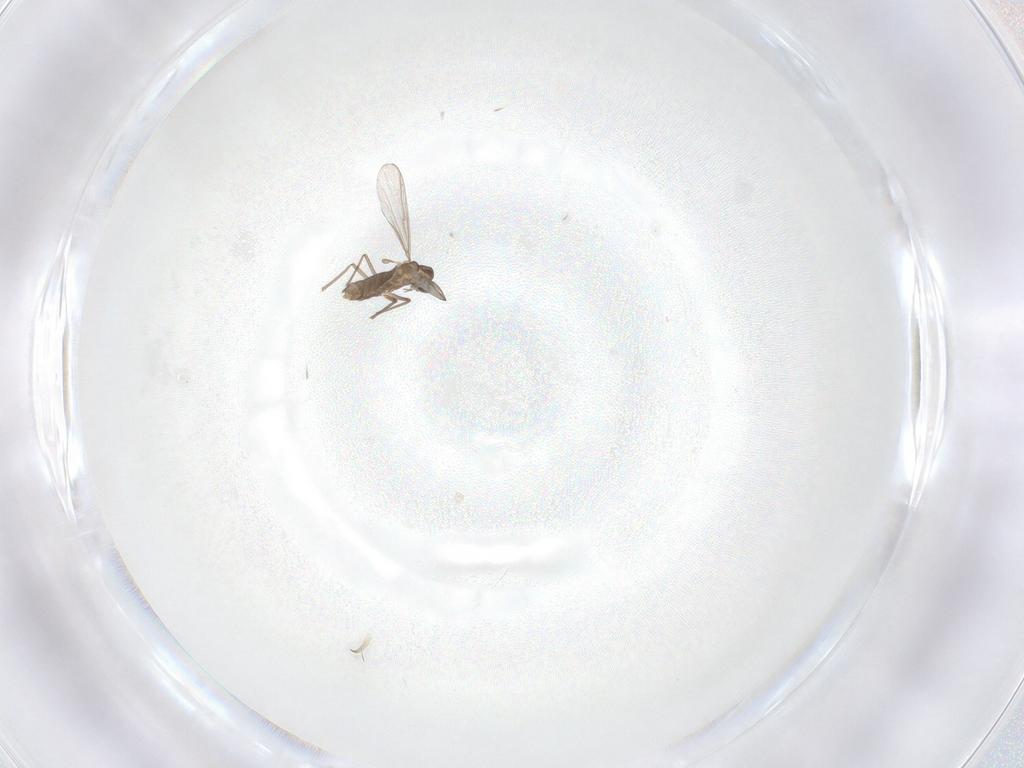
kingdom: Animalia
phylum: Arthropoda
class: Insecta
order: Diptera
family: Chironomidae
